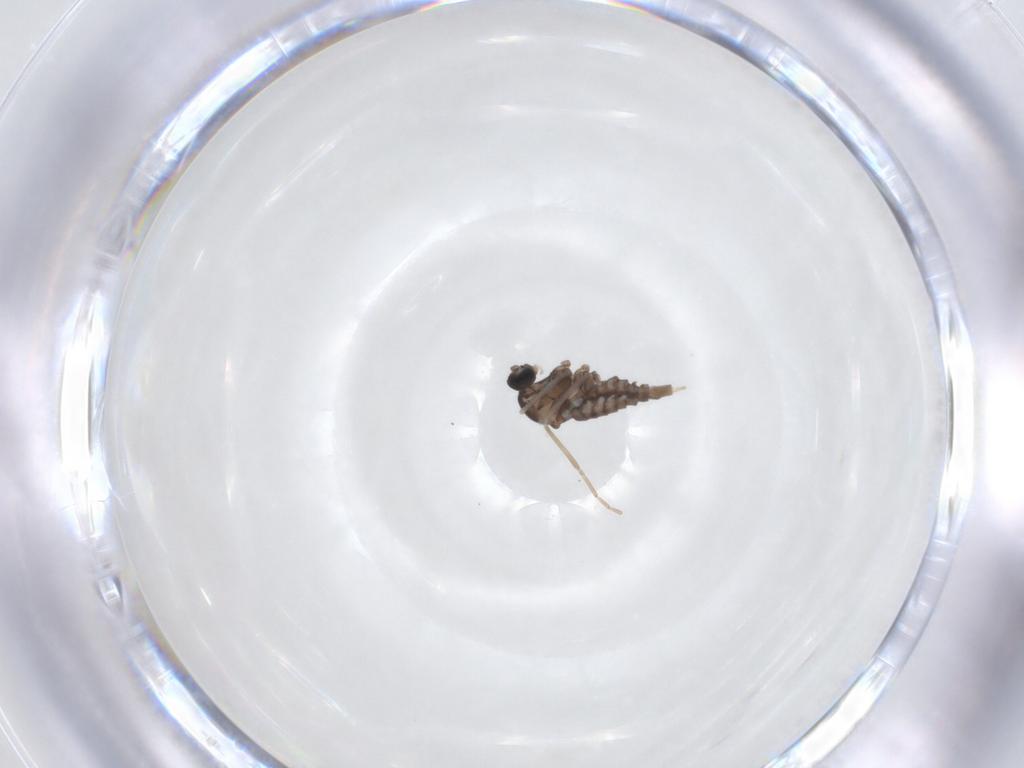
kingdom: Animalia
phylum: Arthropoda
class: Insecta
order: Diptera
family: Cecidomyiidae
